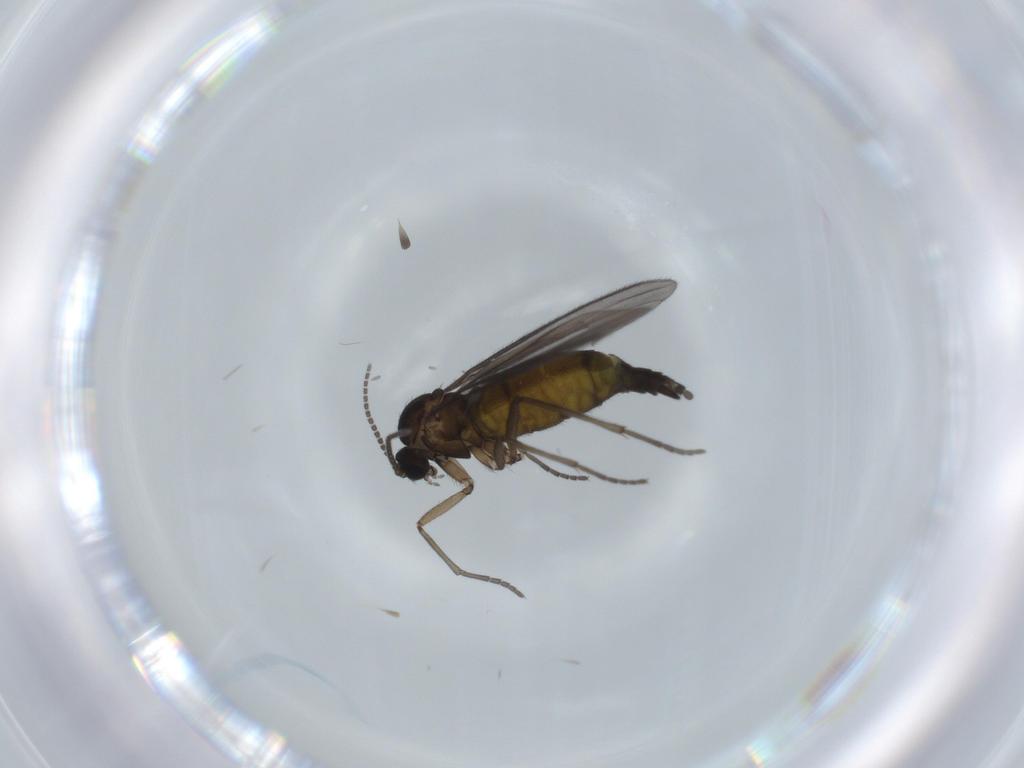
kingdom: Animalia
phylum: Arthropoda
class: Insecta
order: Diptera
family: Sciaridae
